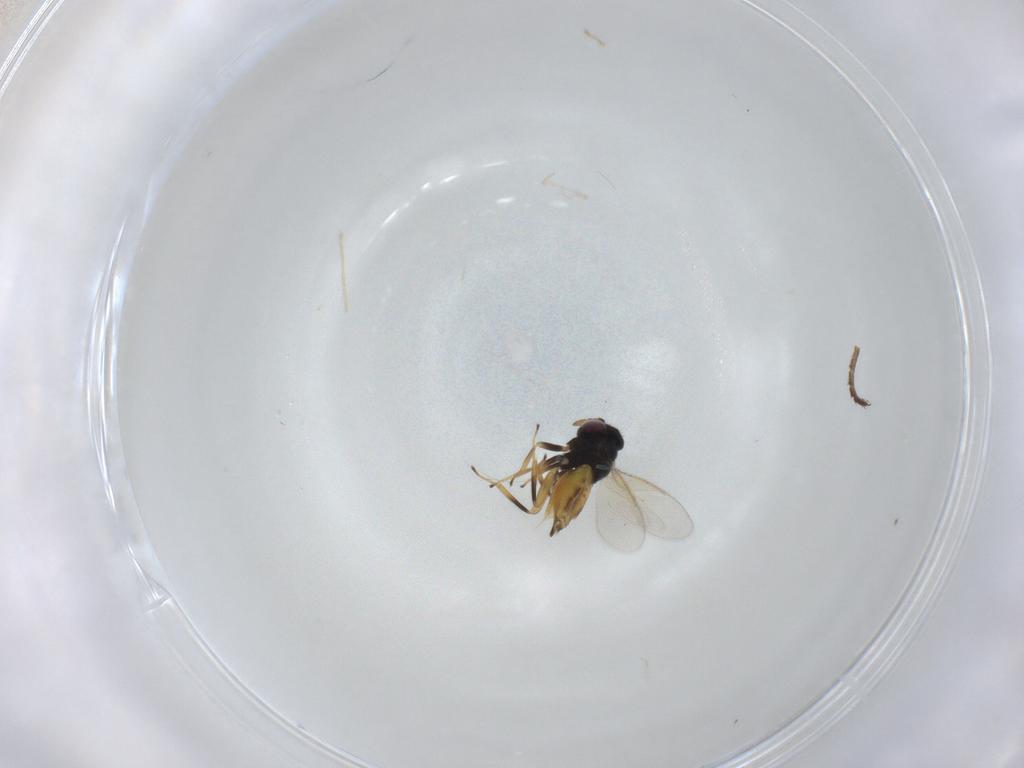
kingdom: Animalia
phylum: Arthropoda
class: Insecta
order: Hymenoptera
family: Aphelinidae
